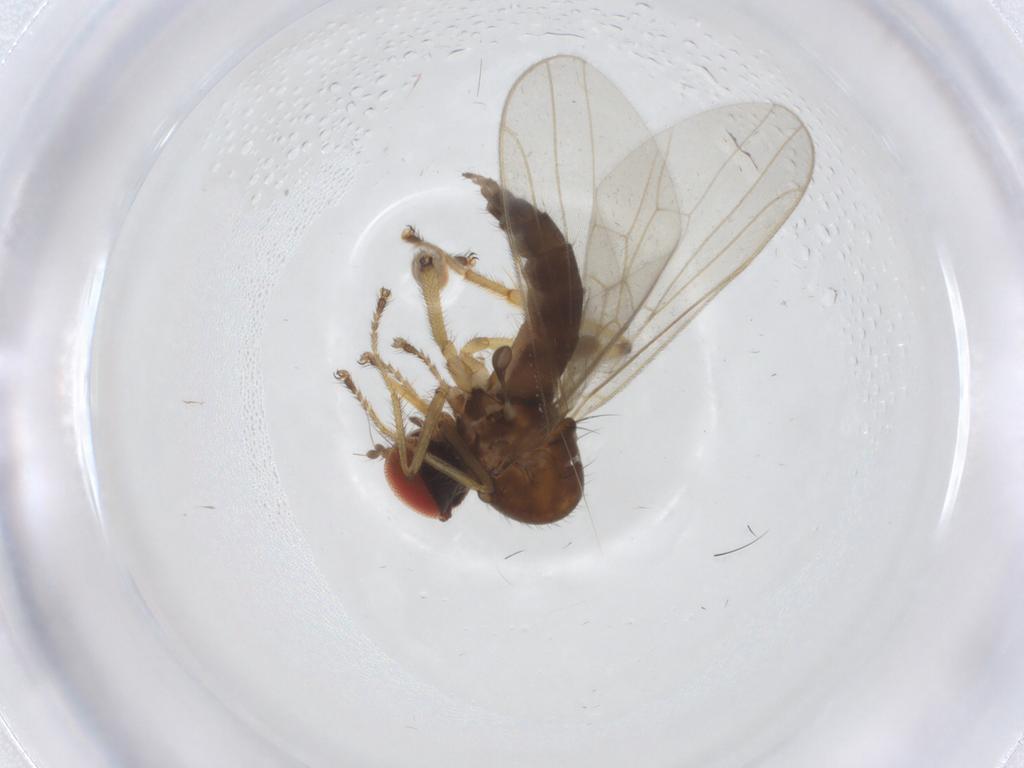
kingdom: Animalia
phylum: Arthropoda
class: Insecta
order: Diptera
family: Hybotidae
